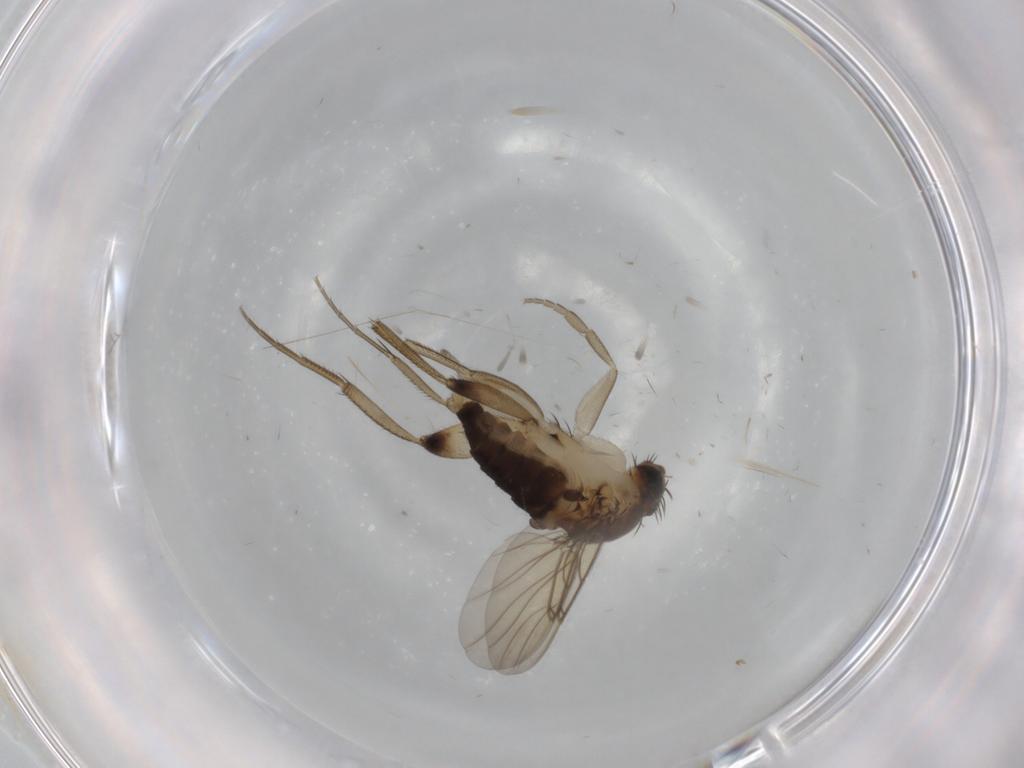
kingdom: Animalia
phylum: Arthropoda
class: Insecta
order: Diptera
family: Phoridae
